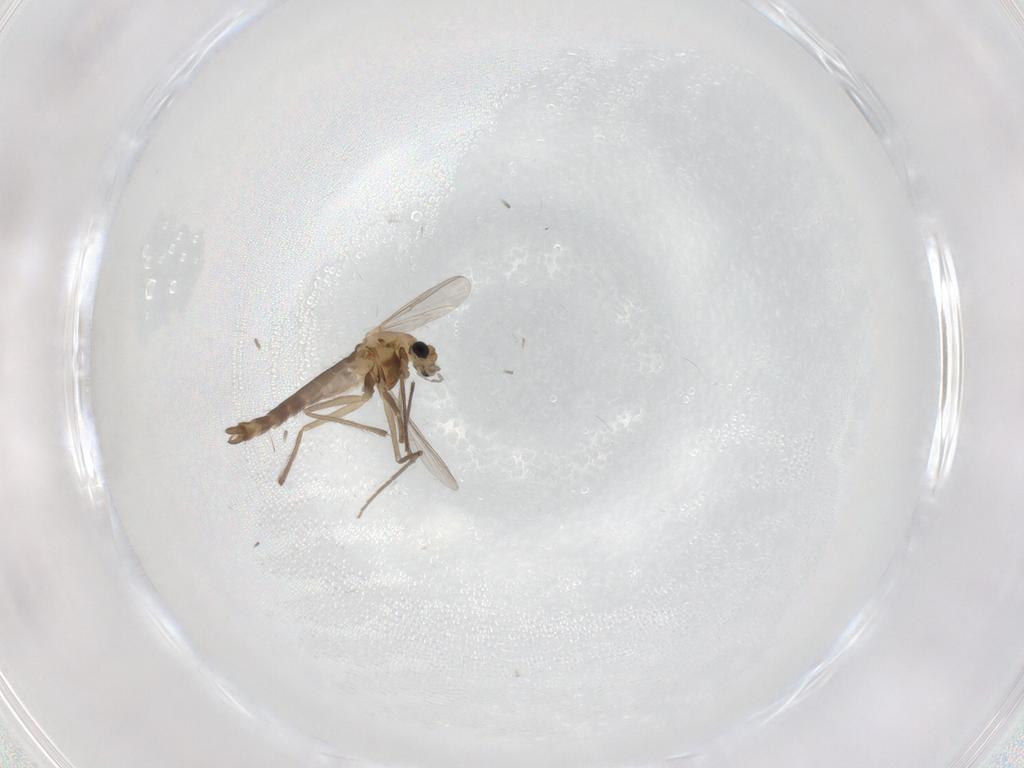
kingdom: Animalia
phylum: Arthropoda
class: Insecta
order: Diptera
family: Chironomidae
